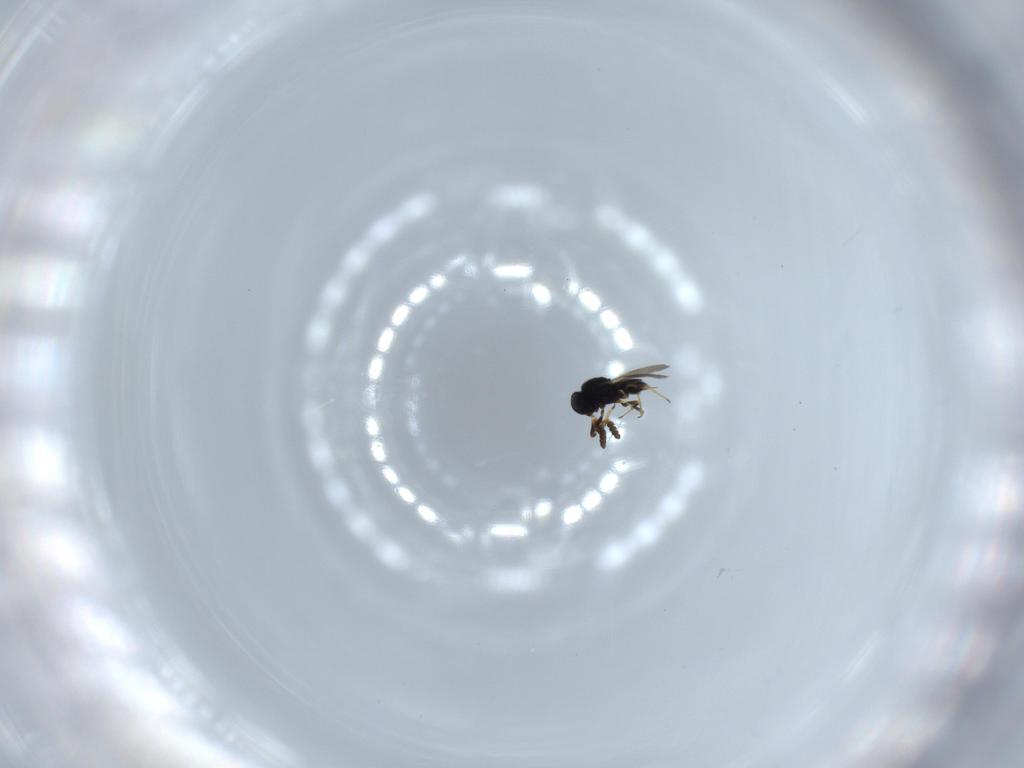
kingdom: Animalia
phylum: Arthropoda
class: Insecta
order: Hymenoptera
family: Scelionidae
